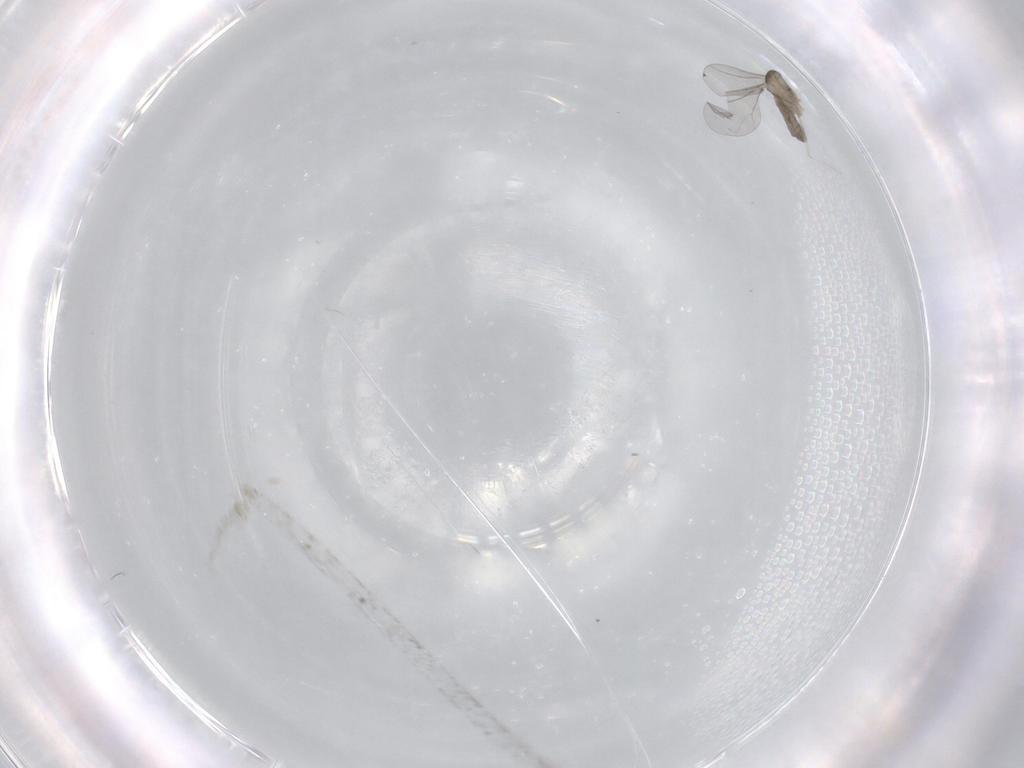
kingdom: Animalia
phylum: Arthropoda
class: Insecta
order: Diptera
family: Cecidomyiidae
